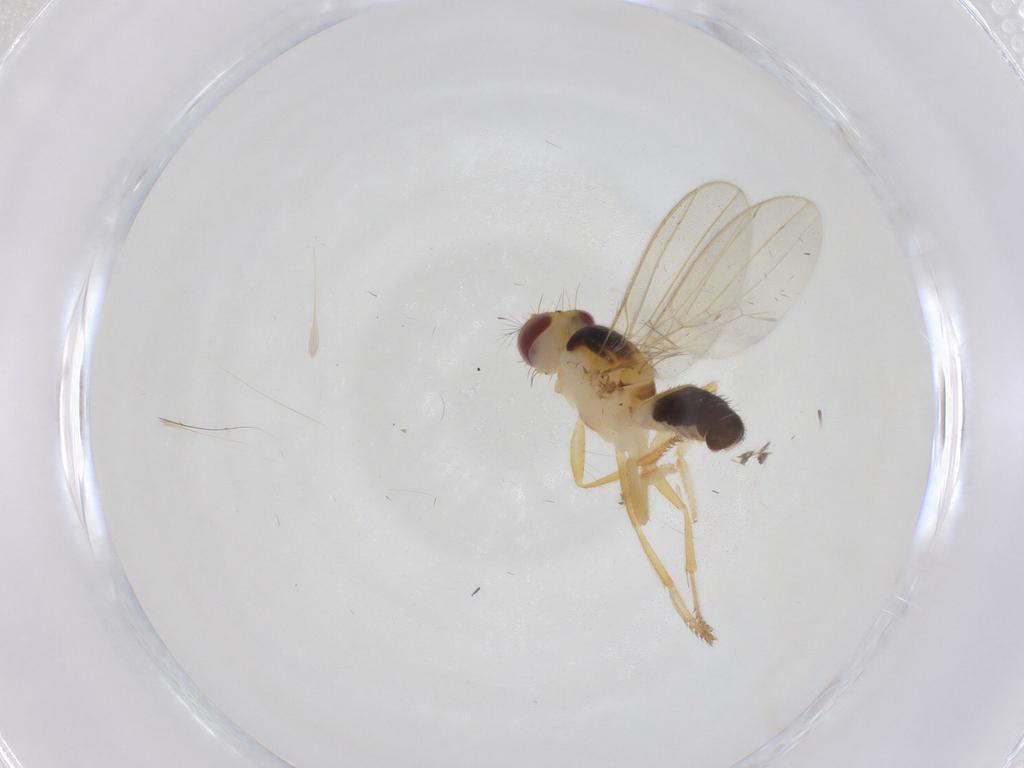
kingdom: Animalia
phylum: Arthropoda
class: Insecta
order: Diptera
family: Periscelididae
